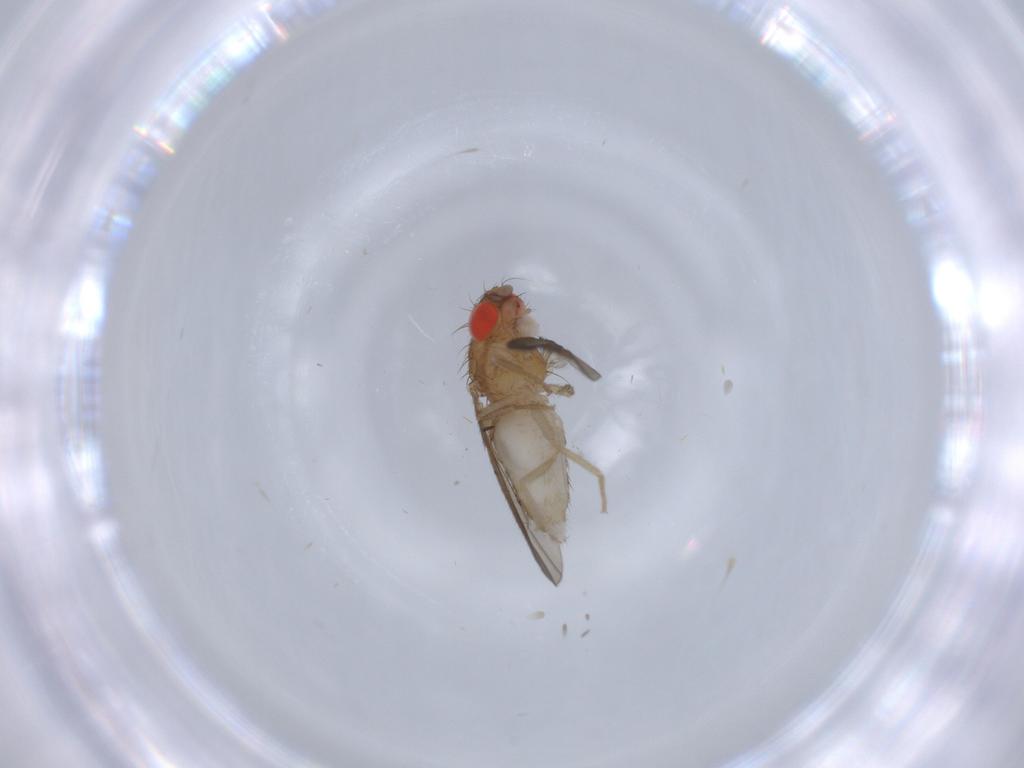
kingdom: Animalia
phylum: Arthropoda
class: Insecta
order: Diptera
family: Drosophilidae
